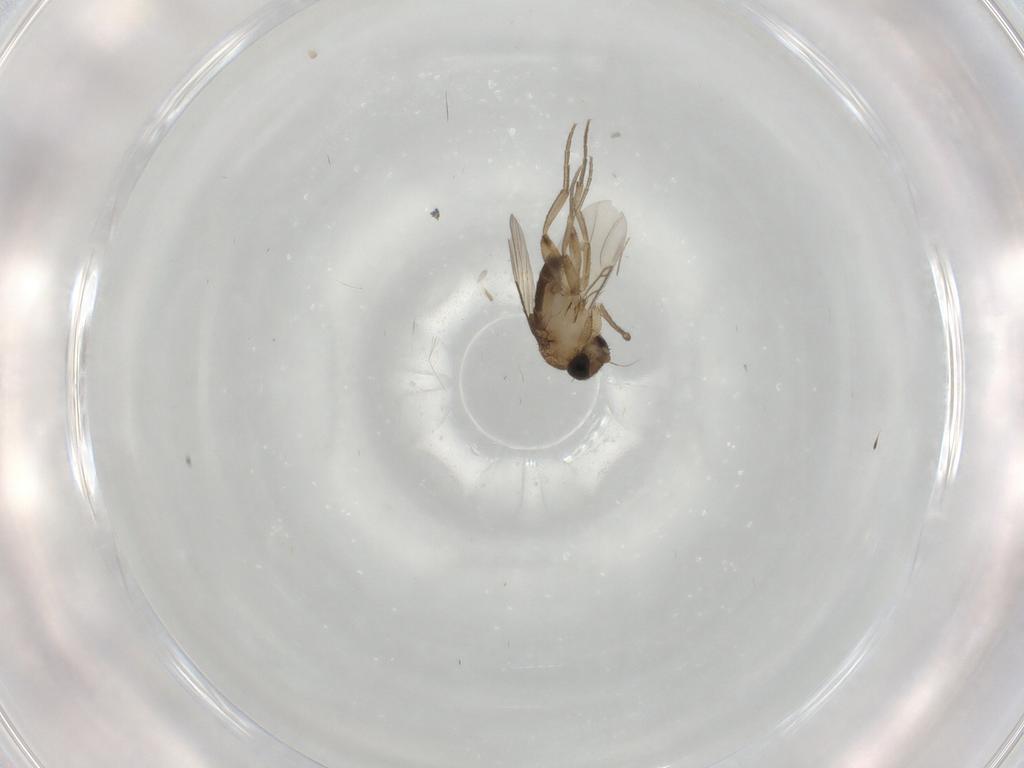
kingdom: Animalia
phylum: Arthropoda
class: Insecta
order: Diptera
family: Phoridae
